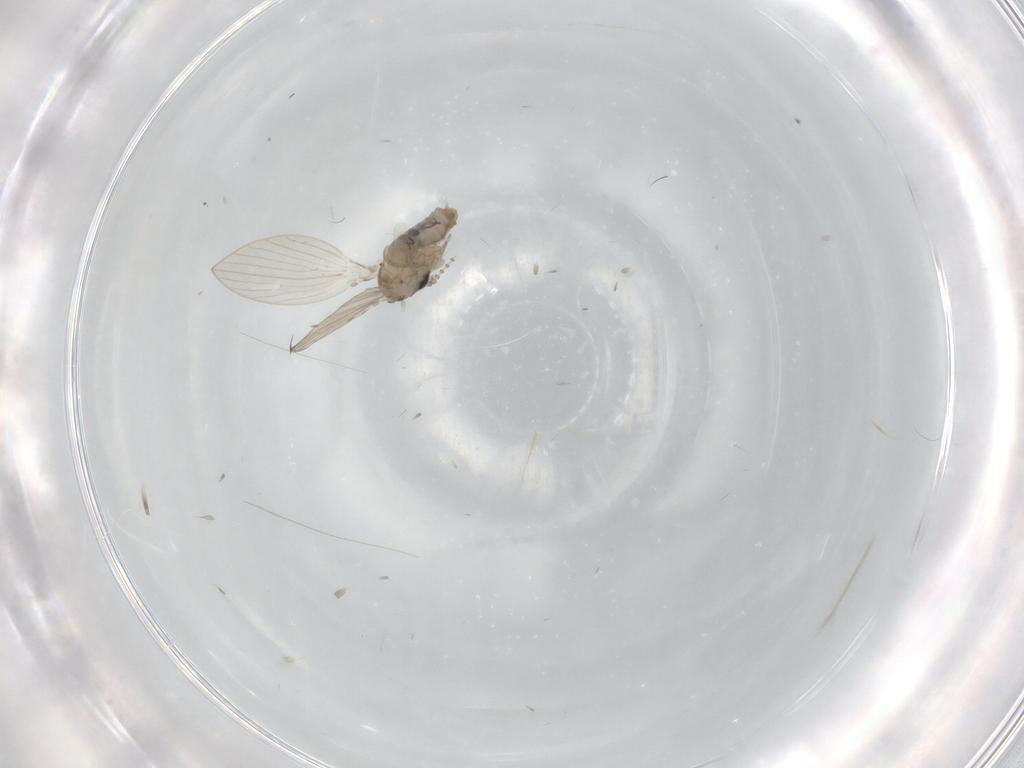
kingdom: Animalia
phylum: Arthropoda
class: Insecta
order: Diptera
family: Psychodidae
